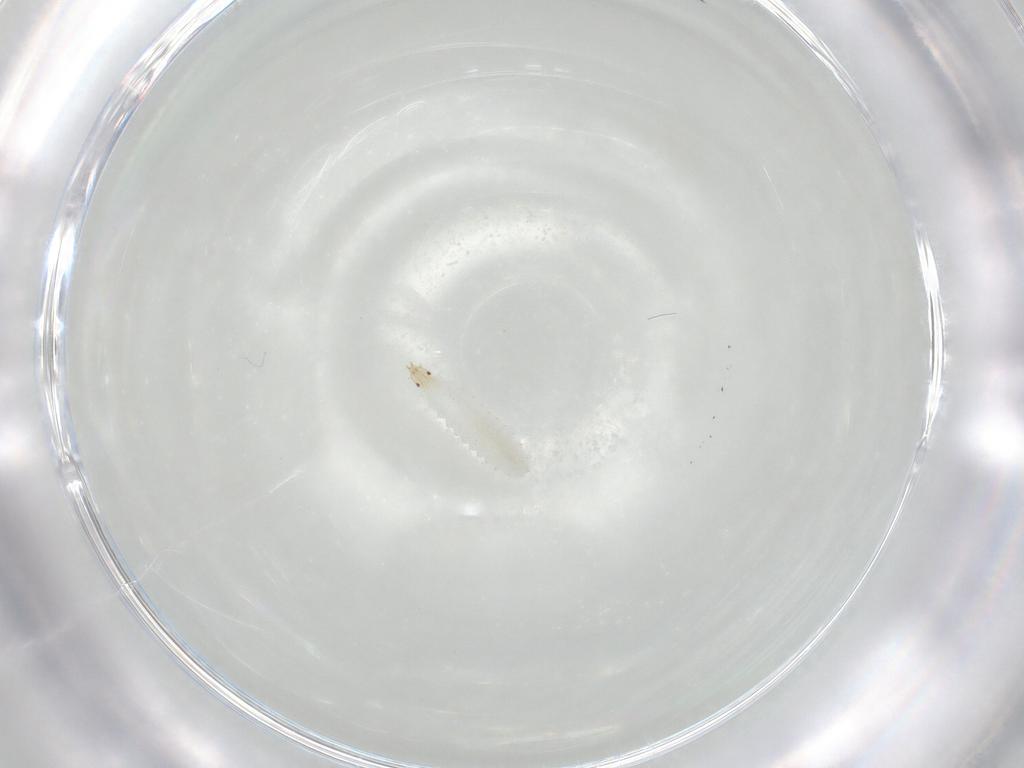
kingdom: Animalia
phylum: Arthropoda
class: Insecta
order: Diptera
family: Stratiomyidae
